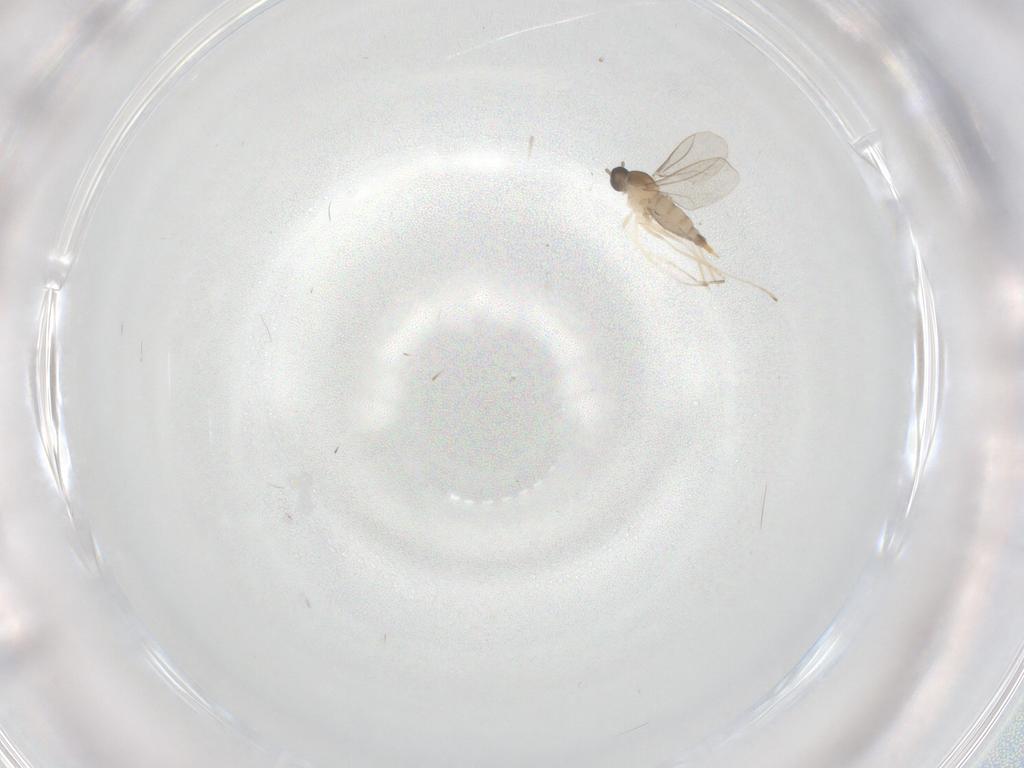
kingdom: Animalia
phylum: Arthropoda
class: Insecta
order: Diptera
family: Cecidomyiidae
